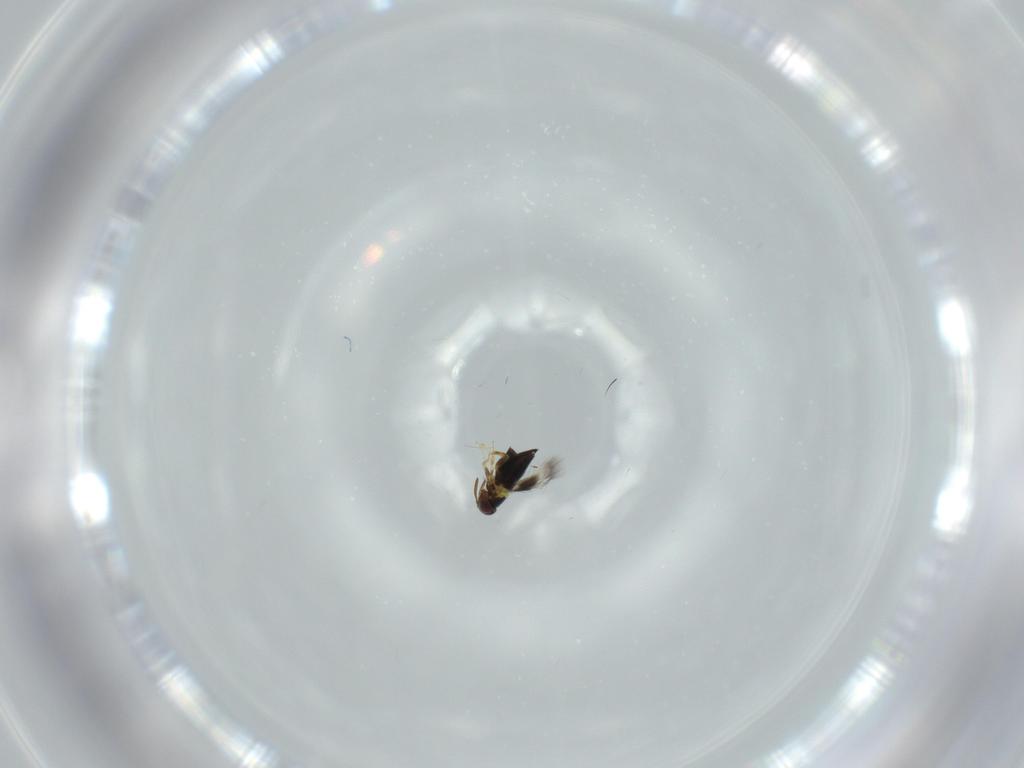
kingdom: Animalia
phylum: Arthropoda
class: Insecta
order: Hymenoptera
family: Signiphoridae
